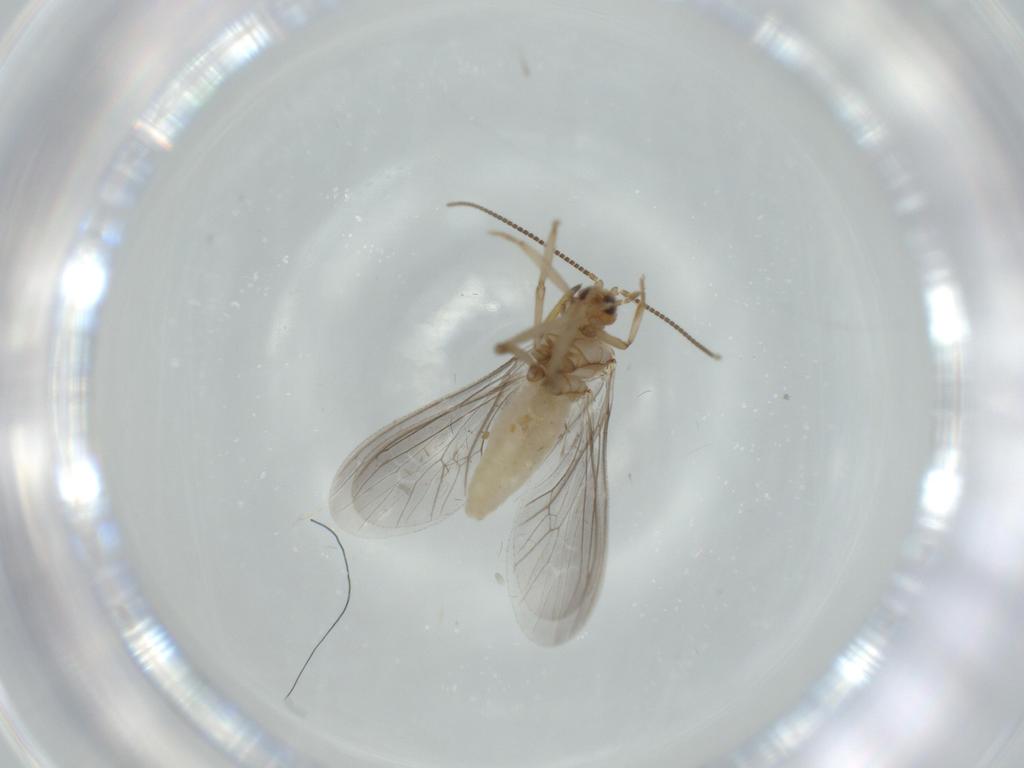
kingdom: Animalia
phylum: Arthropoda
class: Insecta
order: Neuroptera
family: Coniopterygidae
